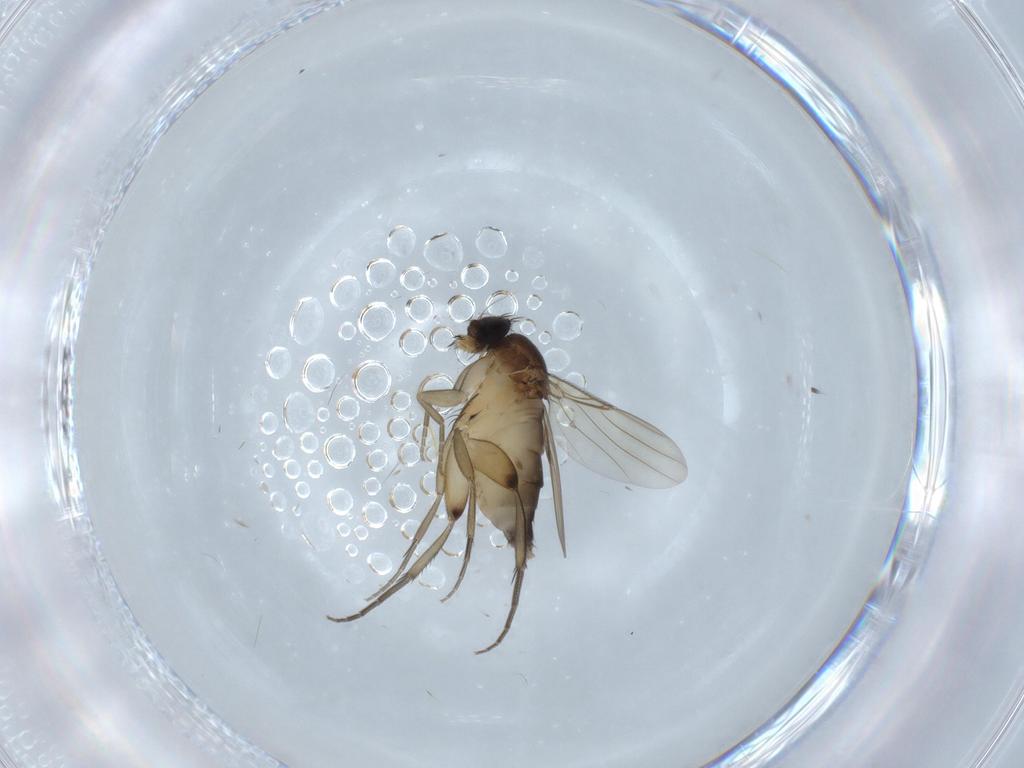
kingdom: Animalia
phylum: Arthropoda
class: Insecta
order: Diptera
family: Phoridae
